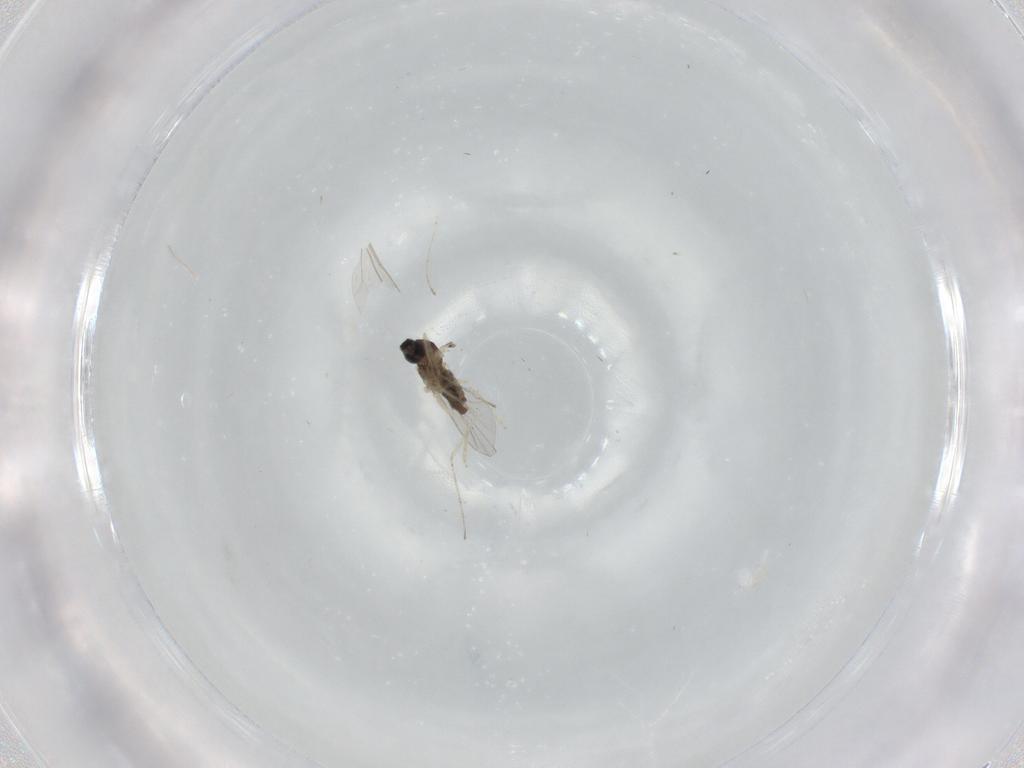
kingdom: Animalia
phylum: Arthropoda
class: Insecta
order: Diptera
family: Cecidomyiidae
